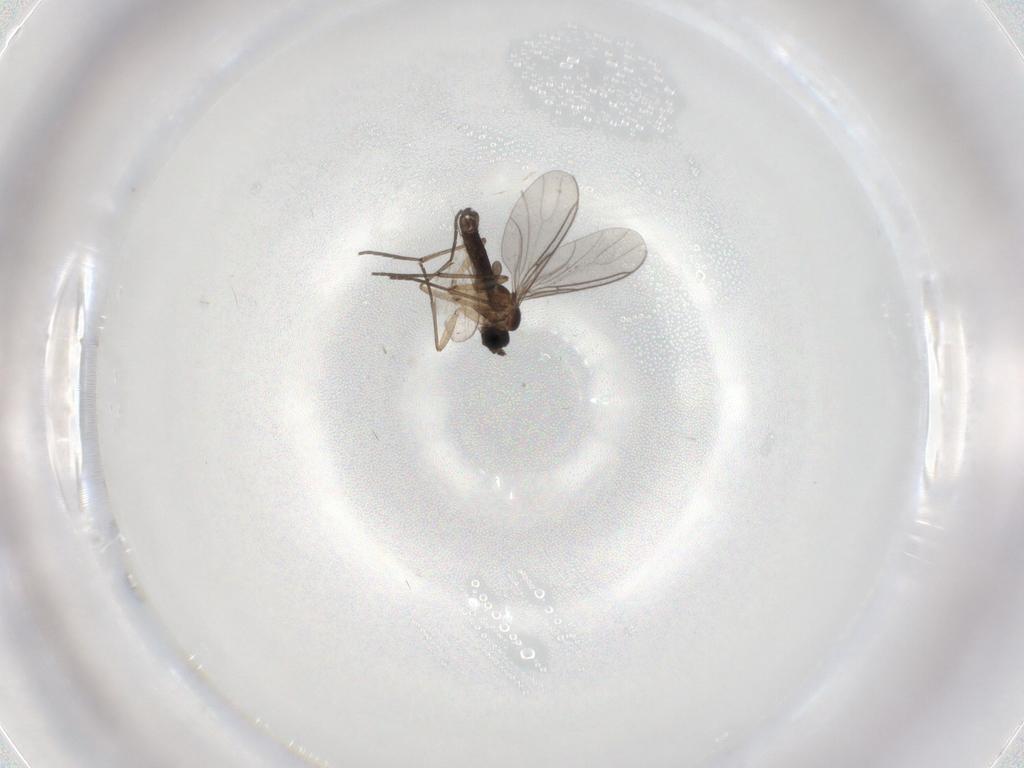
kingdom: Animalia
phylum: Arthropoda
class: Insecta
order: Diptera
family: Sciaridae
